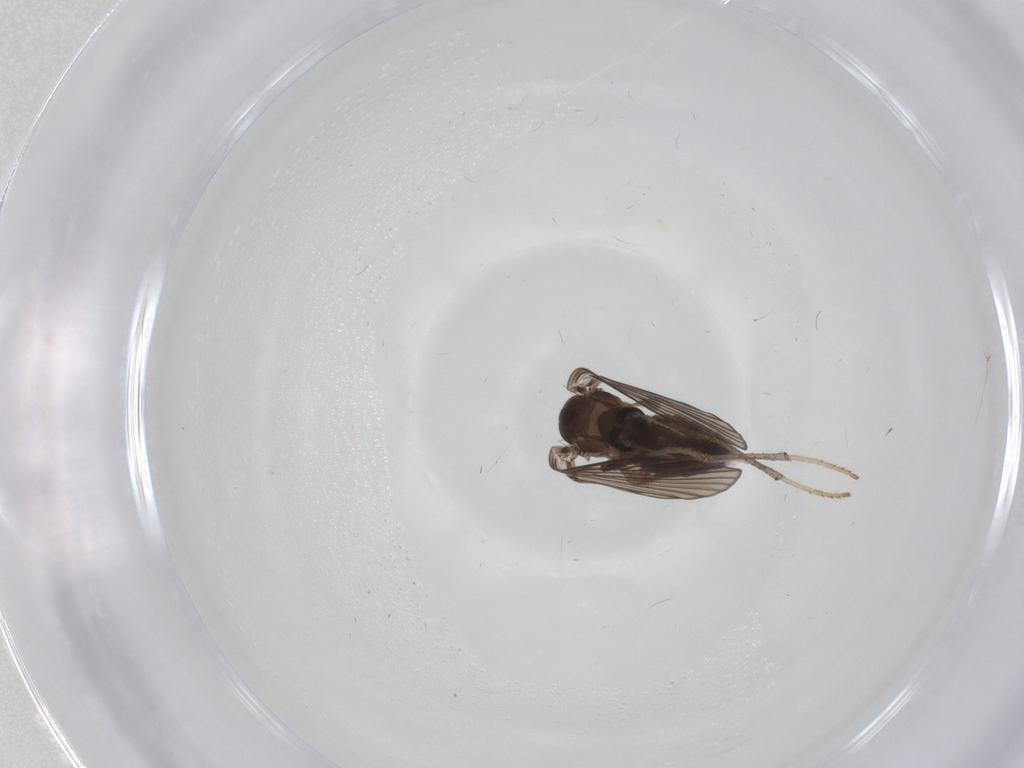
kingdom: Animalia
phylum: Arthropoda
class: Insecta
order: Diptera
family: Psychodidae
